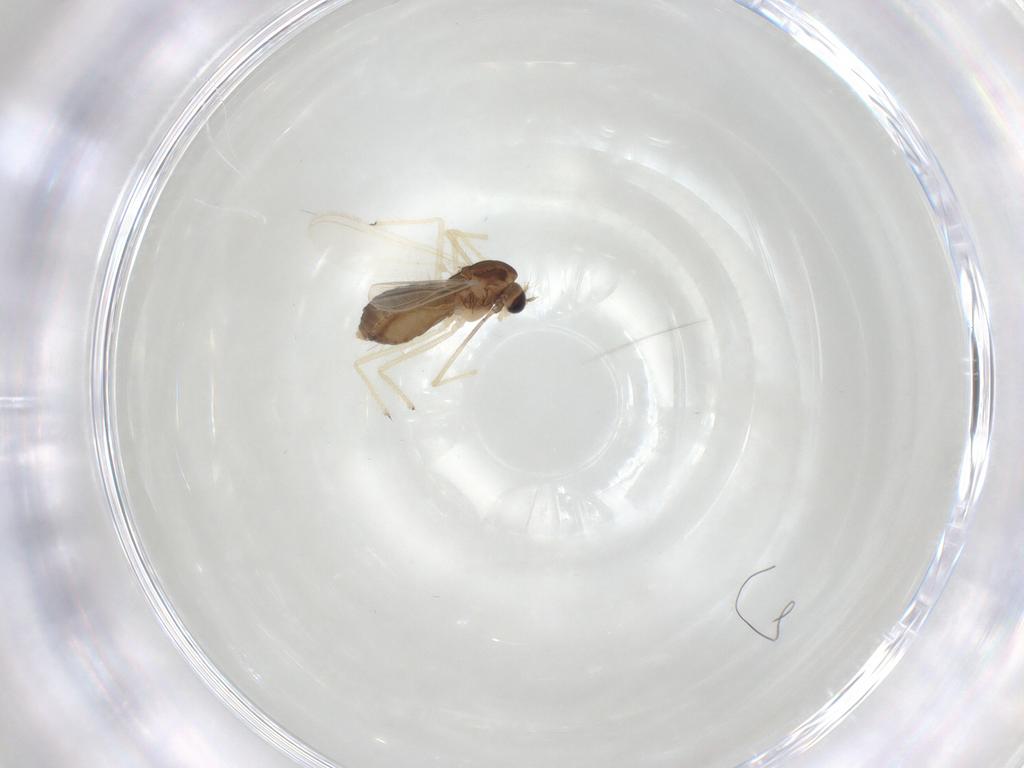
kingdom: Animalia
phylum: Arthropoda
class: Insecta
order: Diptera
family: Chironomidae
